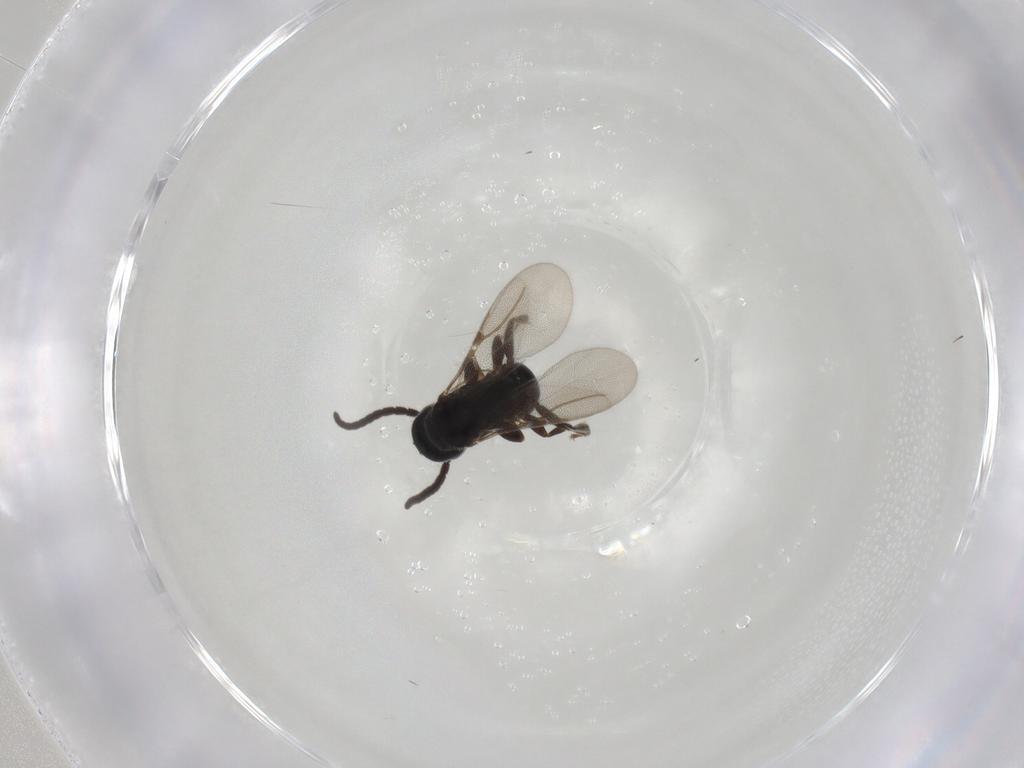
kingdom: Animalia
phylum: Arthropoda
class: Insecta
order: Hymenoptera
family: Bethylidae
